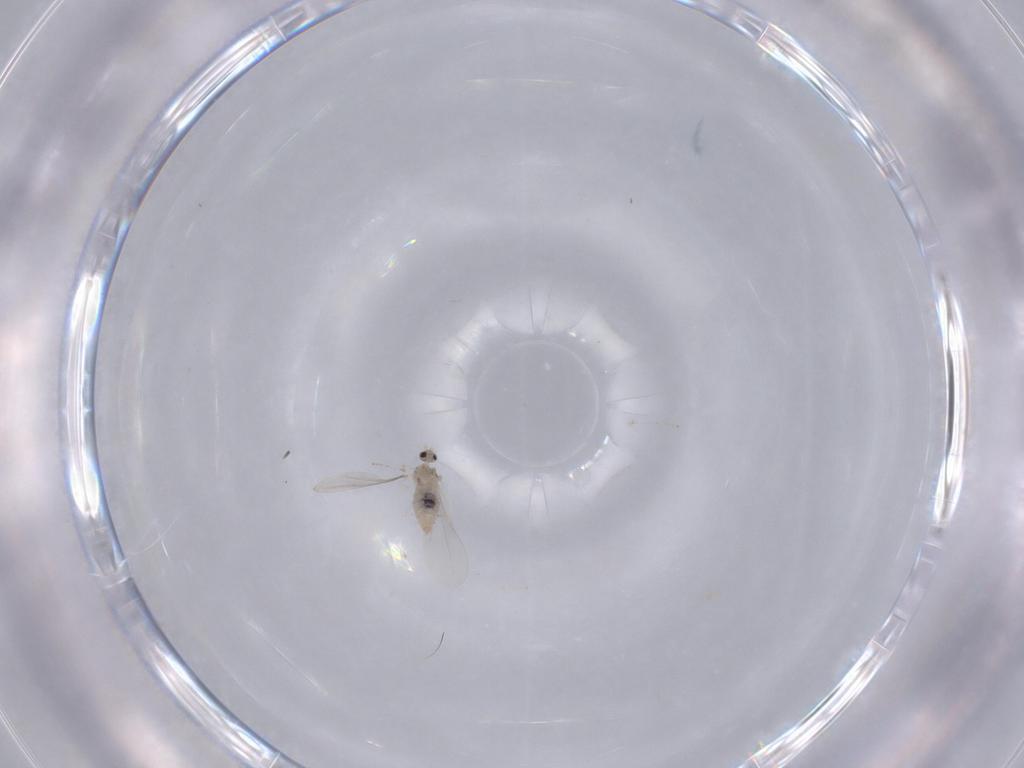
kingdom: Animalia
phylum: Arthropoda
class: Insecta
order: Diptera
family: Cecidomyiidae
